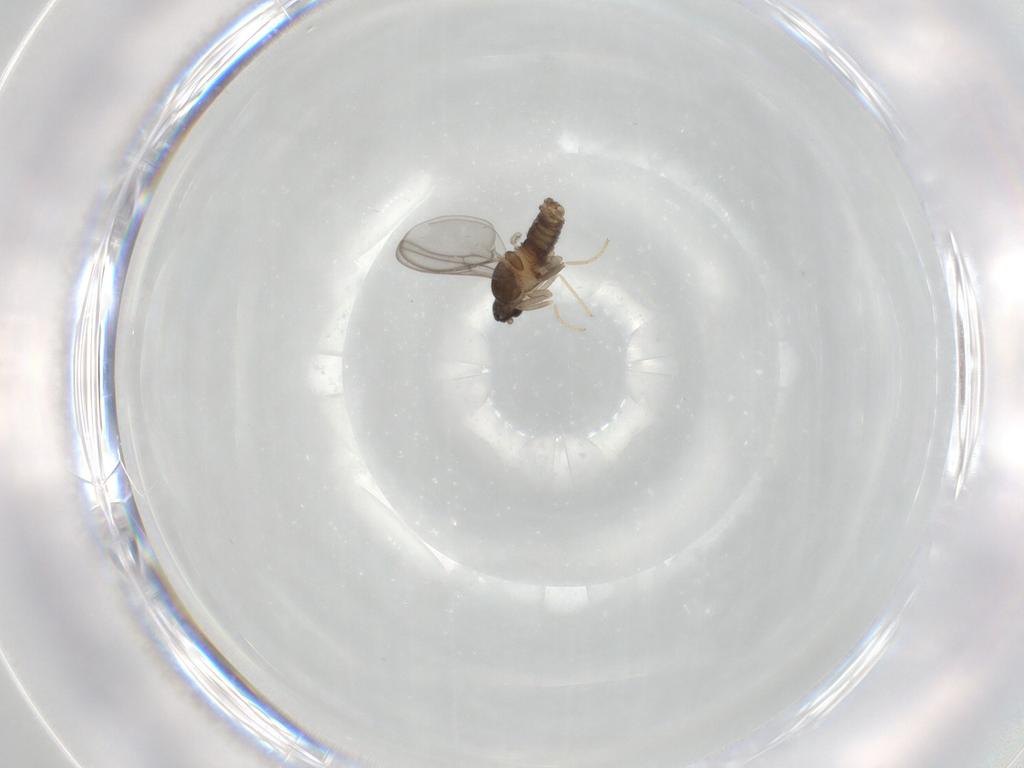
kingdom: Animalia
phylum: Arthropoda
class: Insecta
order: Diptera
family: Cecidomyiidae
